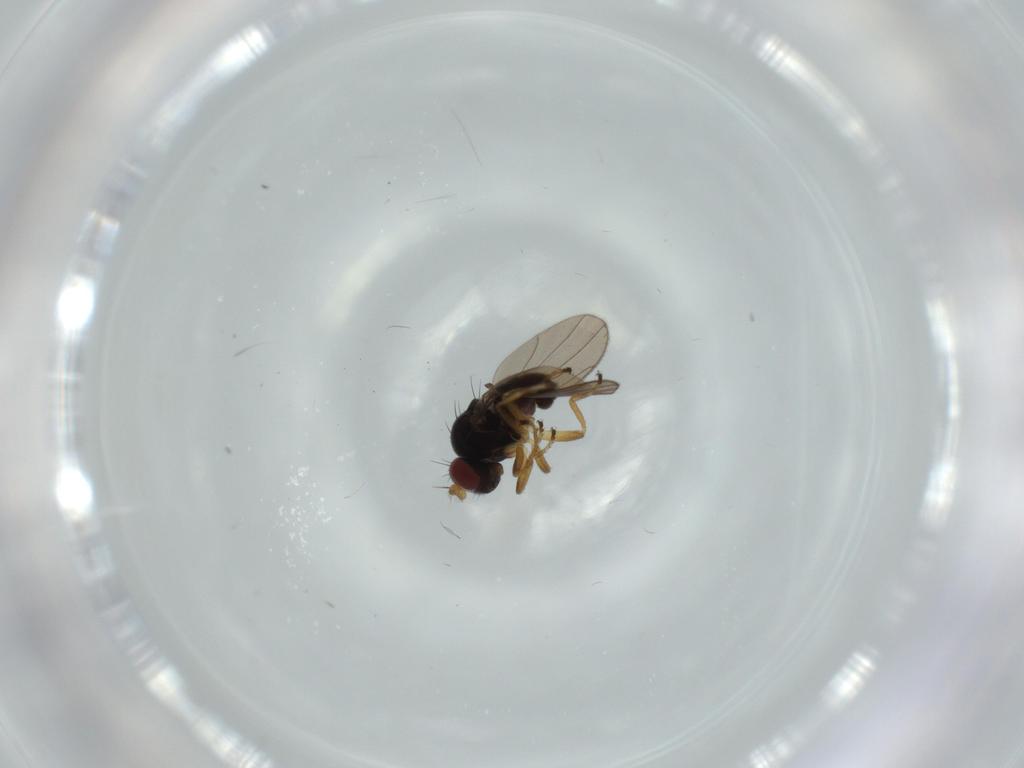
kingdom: Animalia
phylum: Arthropoda
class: Insecta
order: Diptera
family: Ephydridae
